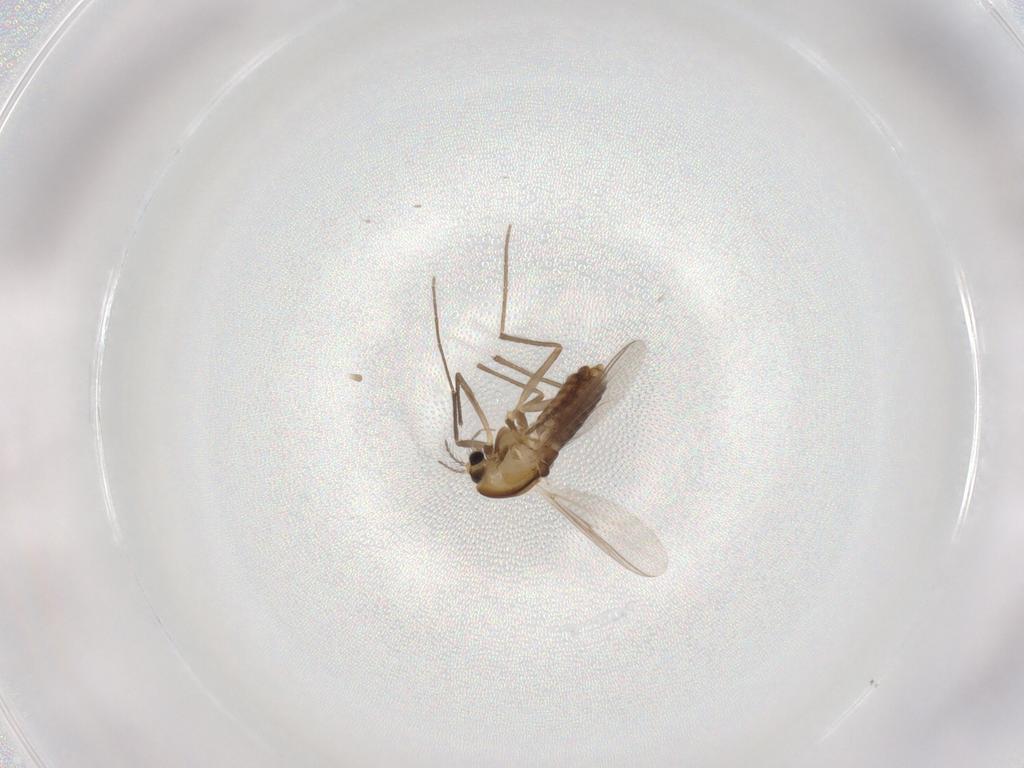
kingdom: Animalia
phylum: Arthropoda
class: Insecta
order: Diptera
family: Chironomidae
